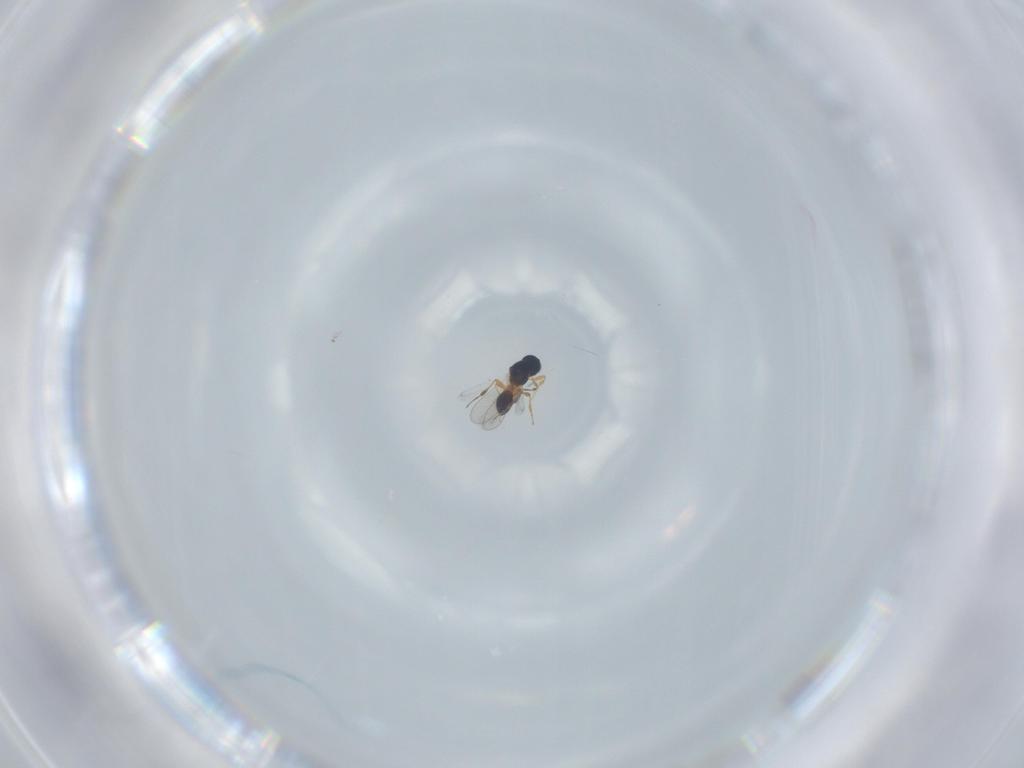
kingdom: Animalia
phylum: Arthropoda
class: Insecta
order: Hymenoptera
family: Platygastridae
